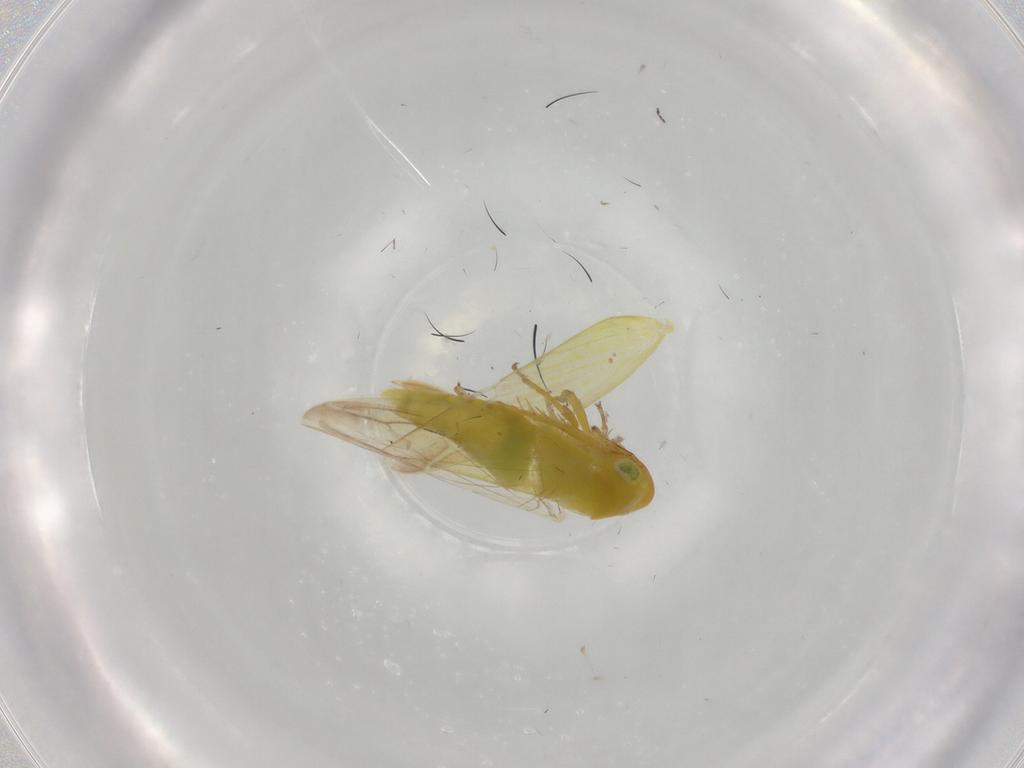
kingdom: Animalia
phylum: Arthropoda
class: Insecta
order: Hemiptera
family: Cicadellidae
